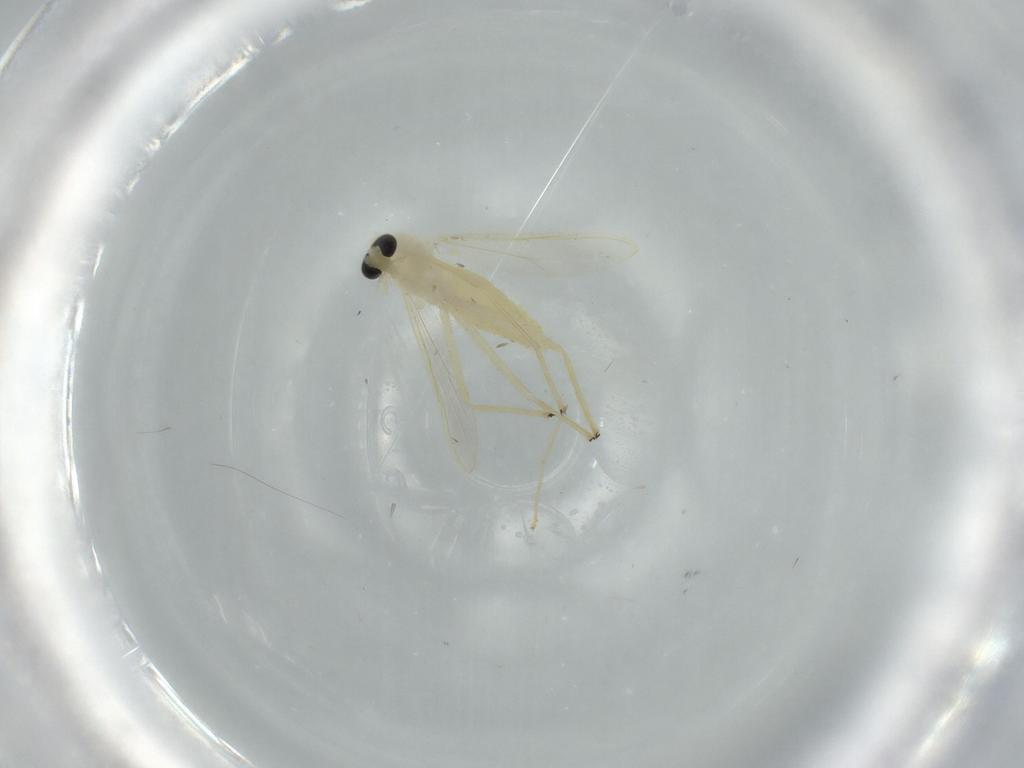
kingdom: Animalia
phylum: Arthropoda
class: Insecta
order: Diptera
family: Chironomidae
